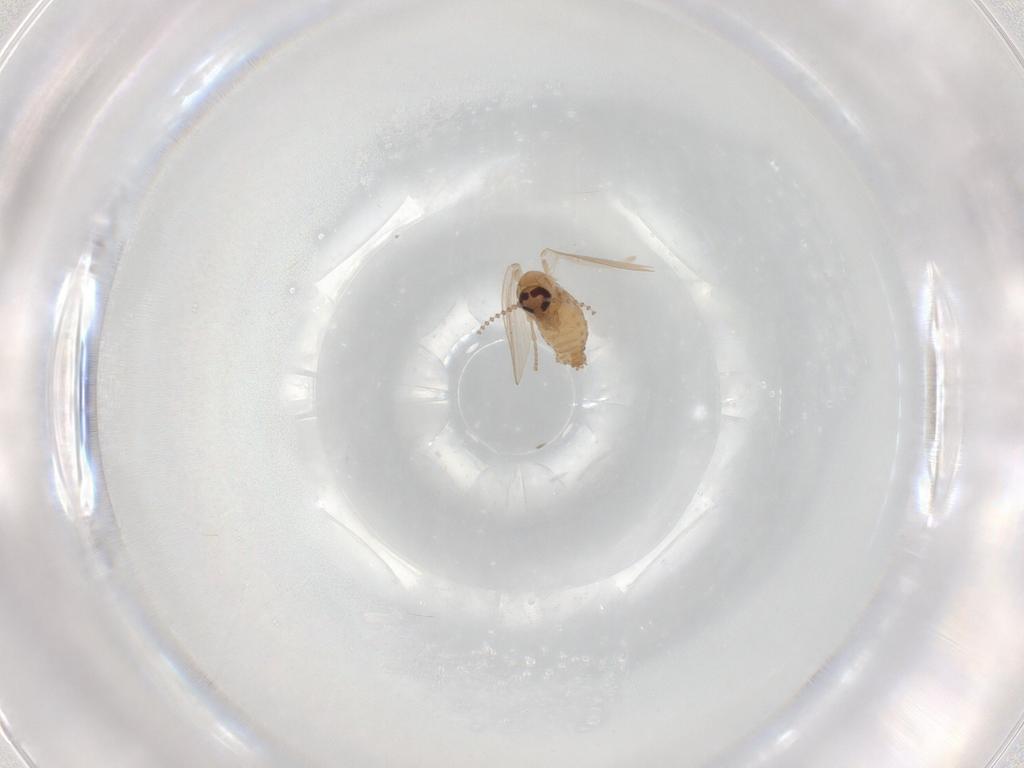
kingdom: Animalia
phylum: Arthropoda
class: Insecta
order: Diptera
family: Psychodidae
